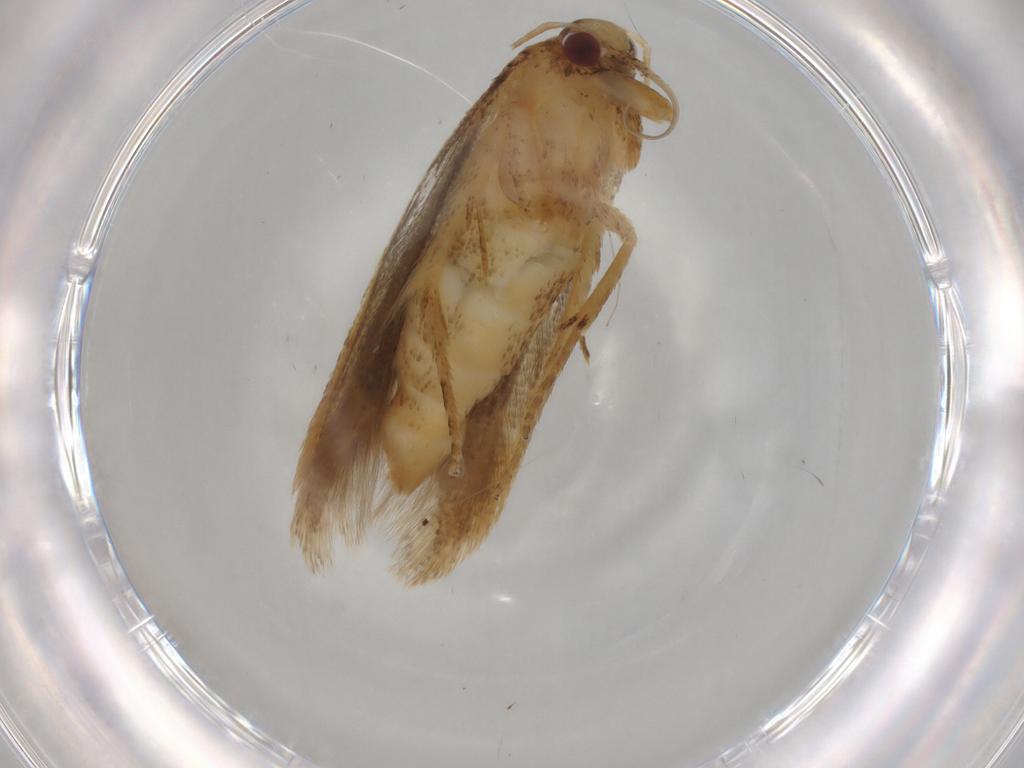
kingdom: Animalia
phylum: Arthropoda
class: Insecta
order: Lepidoptera
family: Gelechiidae
